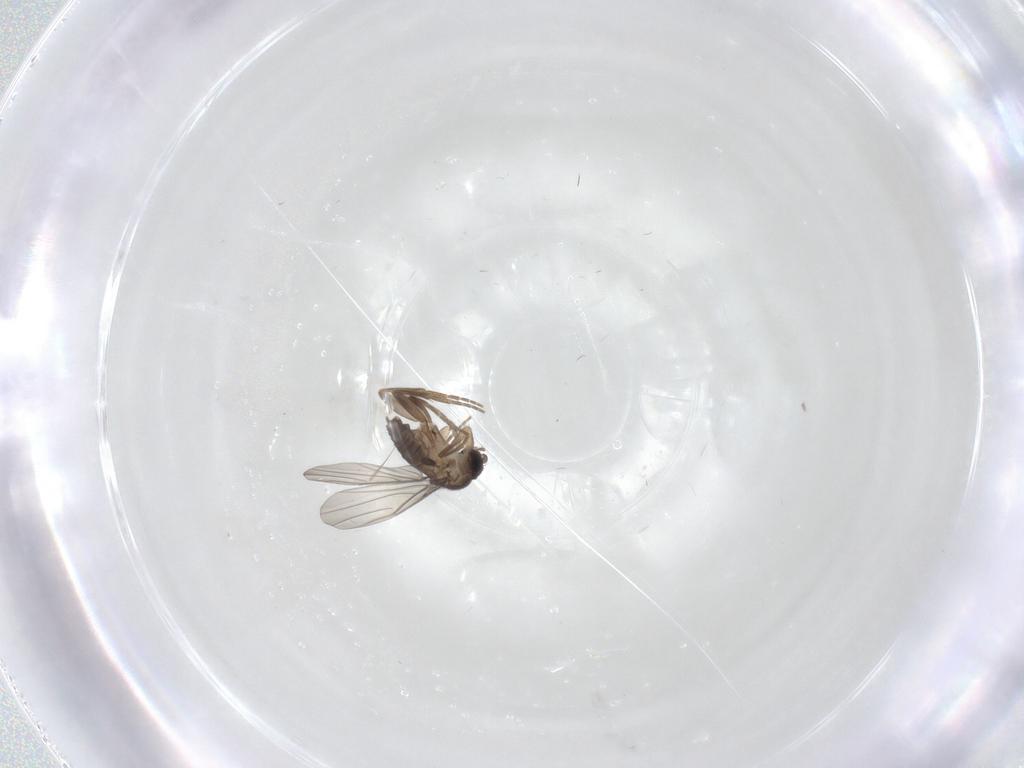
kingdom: Animalia
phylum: Arthropoda
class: Insecta
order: Diptera
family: Phoridae
